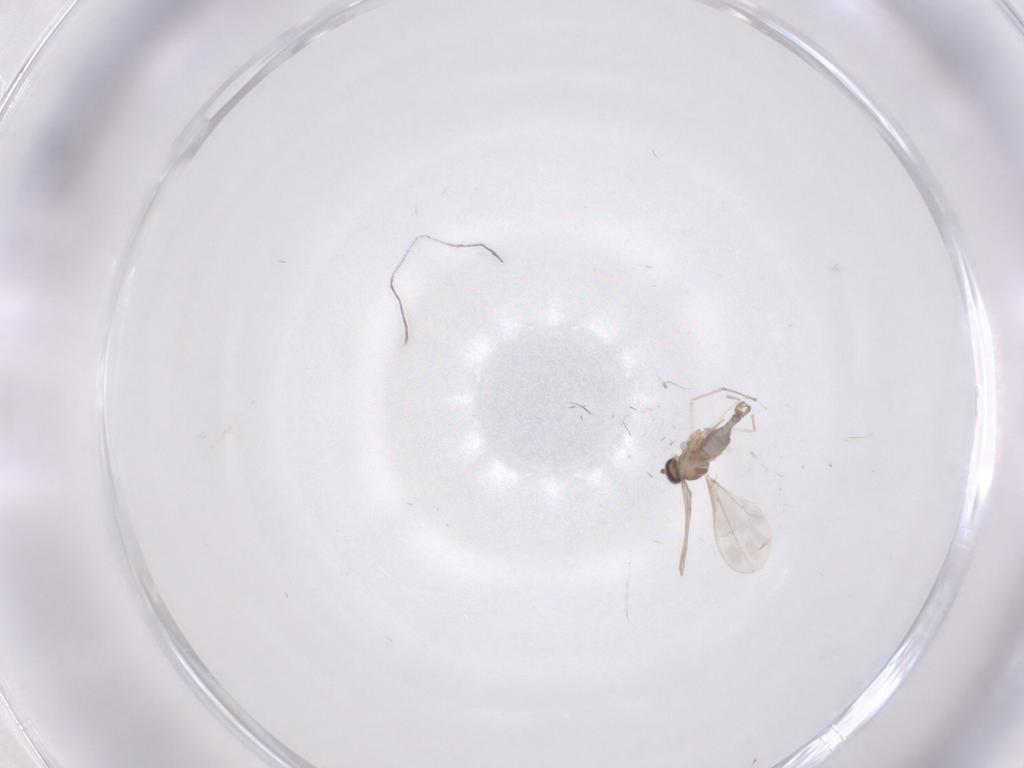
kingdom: Animalia
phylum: Arthropoda
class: Insecta
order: Diptera
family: Cecidomyiidae
